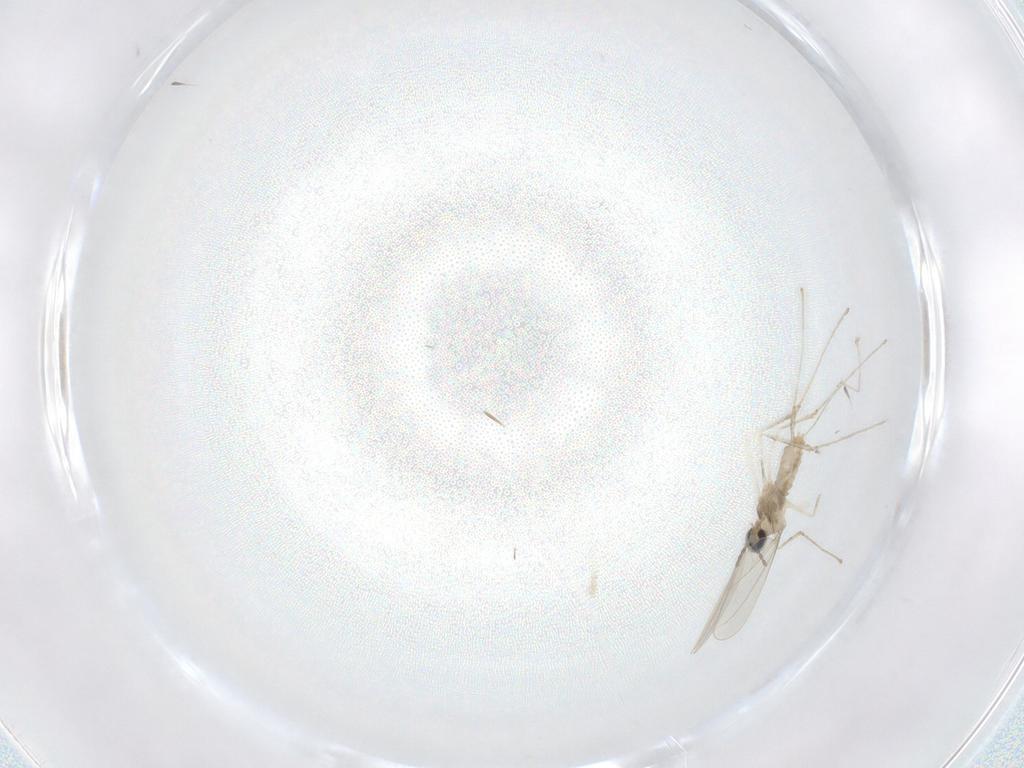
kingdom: Animalia
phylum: Arthropoda
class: Insecta
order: Diptera
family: Cecidomyiidae
